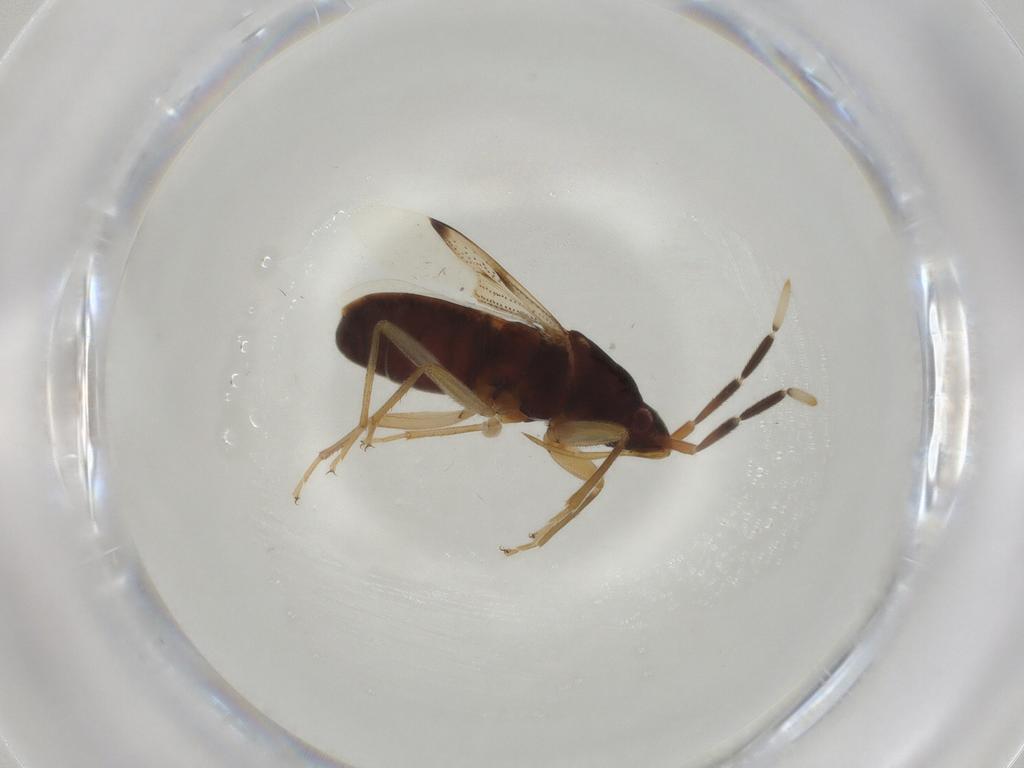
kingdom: Animalia
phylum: Arthropoda
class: Insecta
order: Hemiptera
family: Rhyparochromidae
